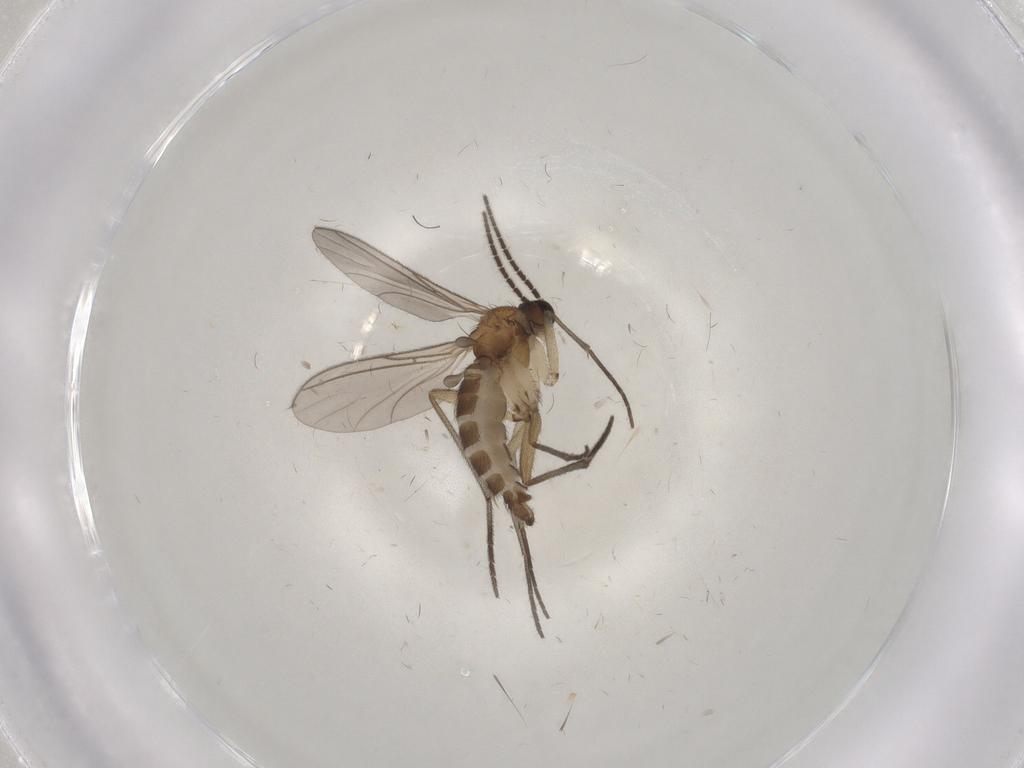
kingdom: Animalia
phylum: Arthropoda
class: Insecta
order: Diptera
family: Sciaridae
